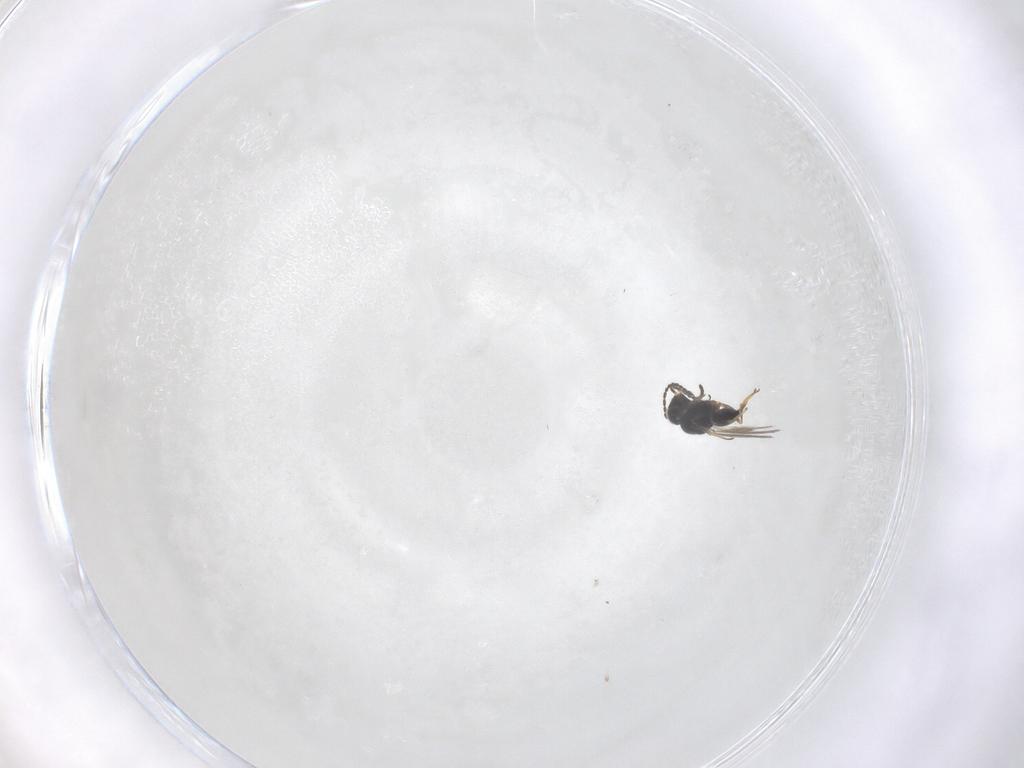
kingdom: Animalia
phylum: Arthropoda
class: Insecta
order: Hymenoptera
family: Scelionidae
